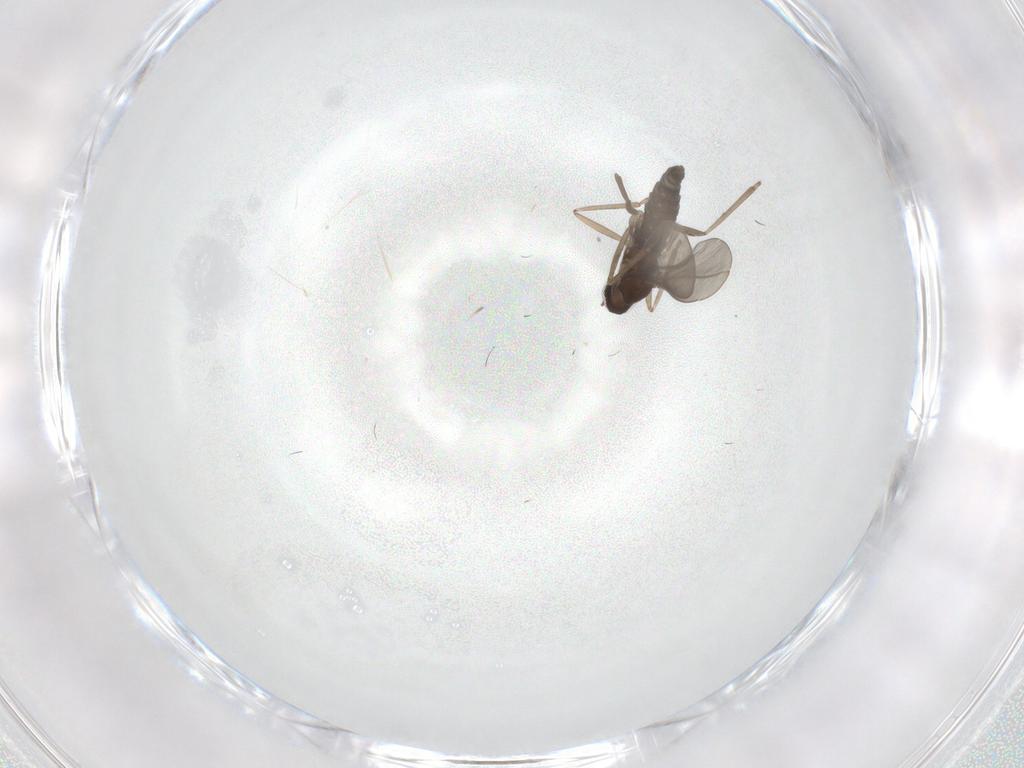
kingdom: Animalia
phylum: Arthropoda
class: Insecta
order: Diptera
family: Cecidomyiidae
